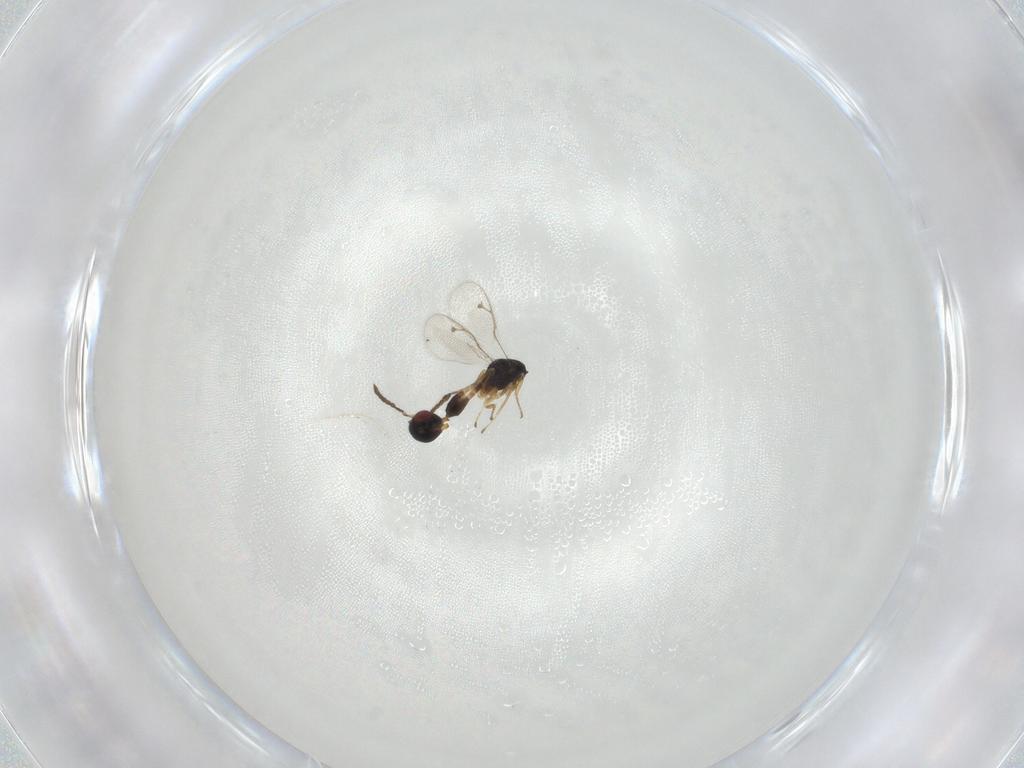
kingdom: Animalia
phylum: Arthropoda
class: Insecta
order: Hymenoptera
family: Pteromalidae
